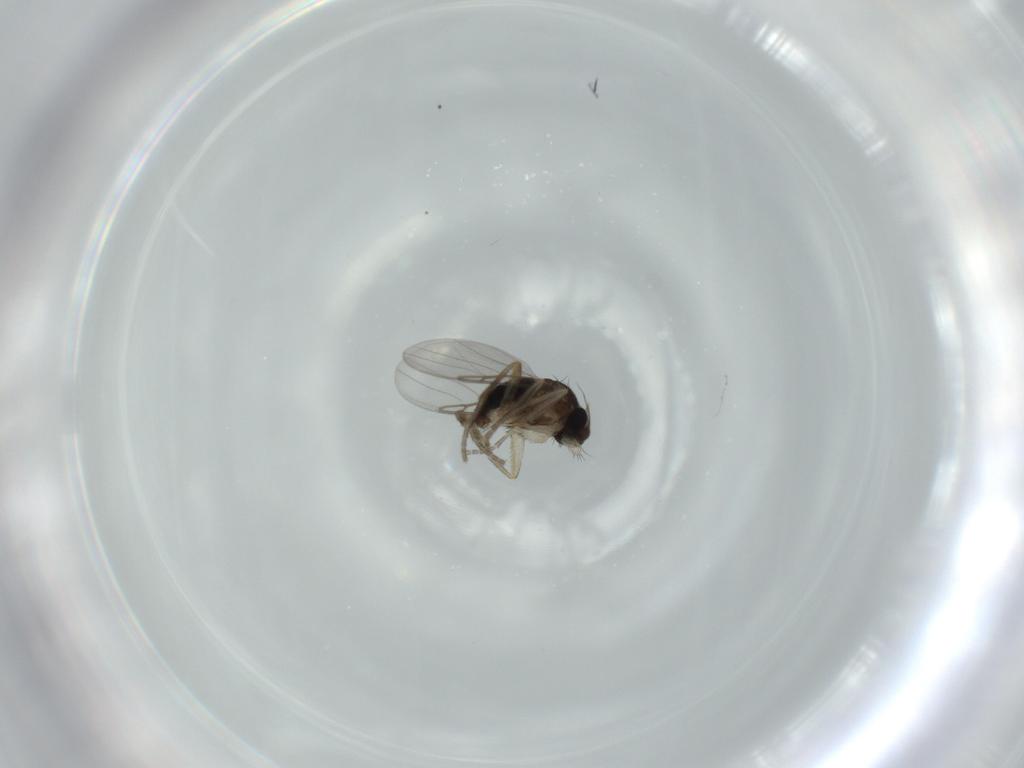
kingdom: Animalia
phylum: Arthropoda
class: Insecta
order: Diptera
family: Phoridae
